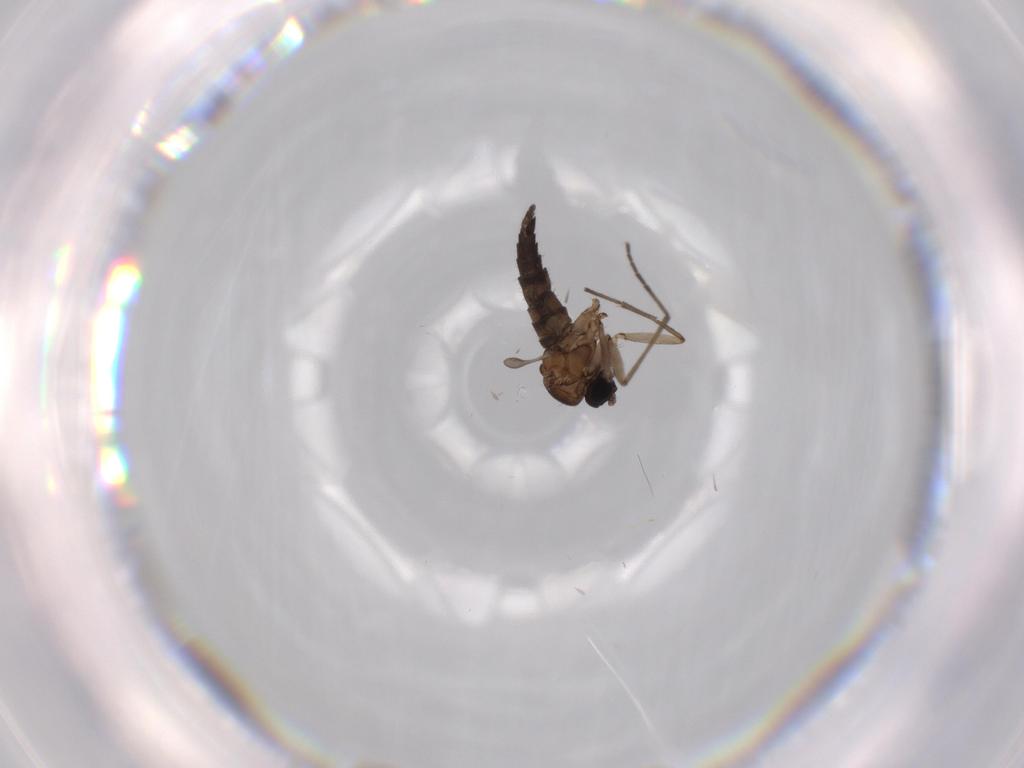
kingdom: Animalia
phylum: Arthropoda
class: Insecta
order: Diptera
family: Sciaridae
